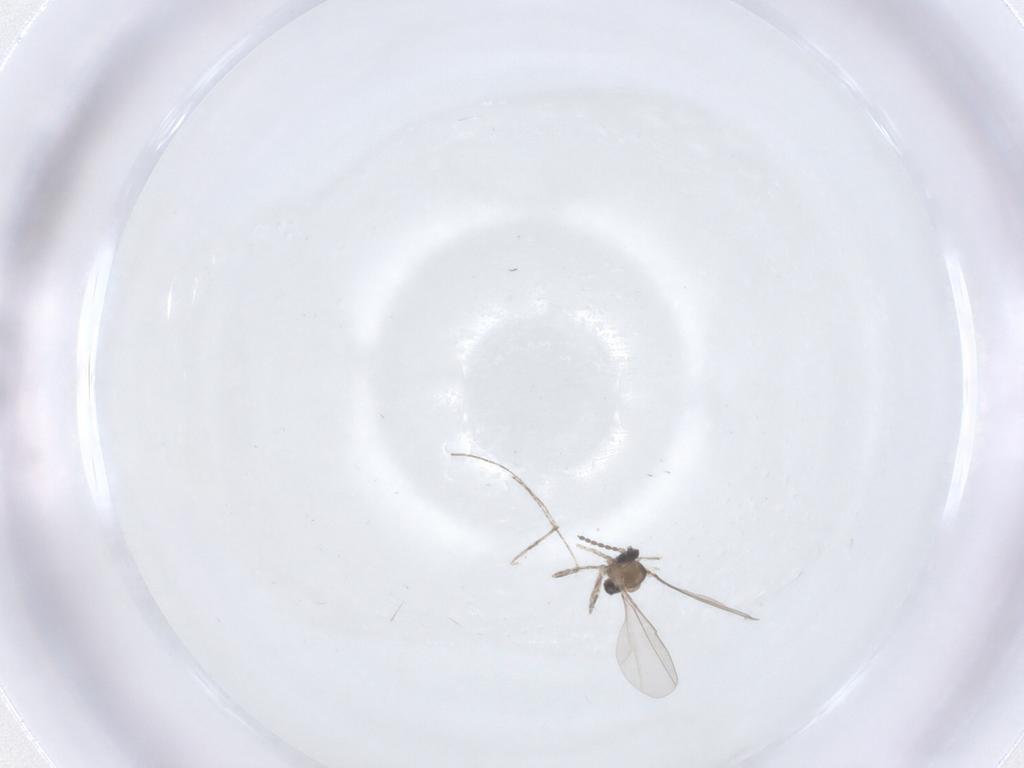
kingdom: Animalia
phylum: Arthropoda
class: Insecta
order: Diptera
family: Cecidomyiidae
